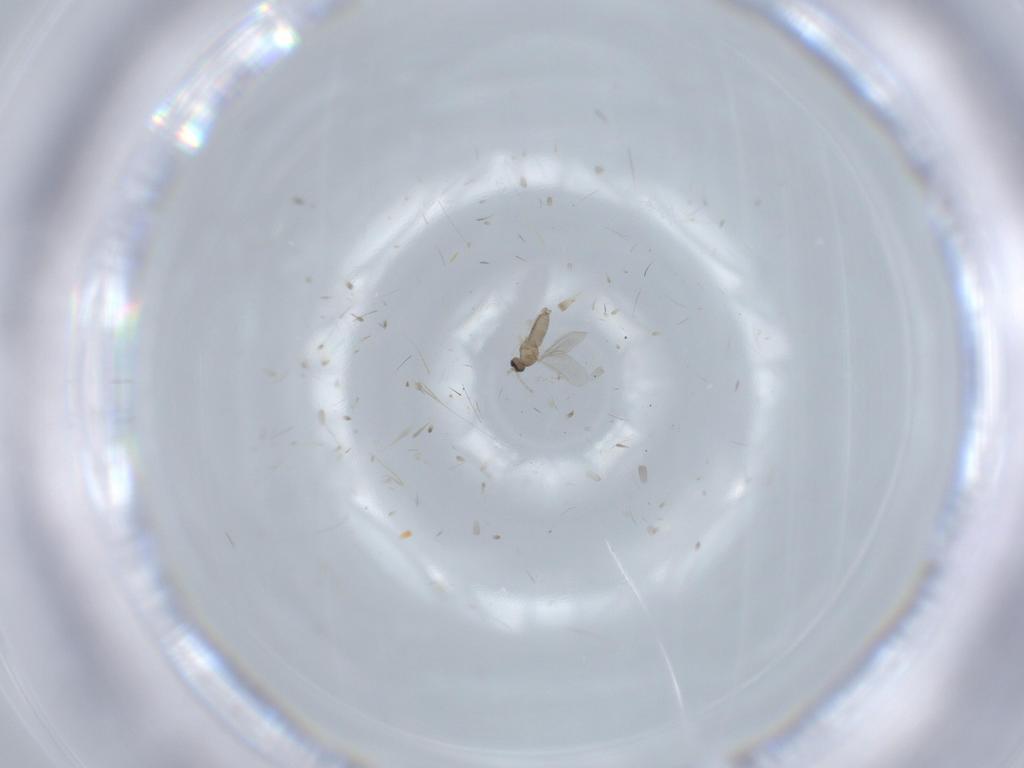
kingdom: Animalia
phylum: Arthropoda
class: Insecta
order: Diptera
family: Cecidomyiidae
